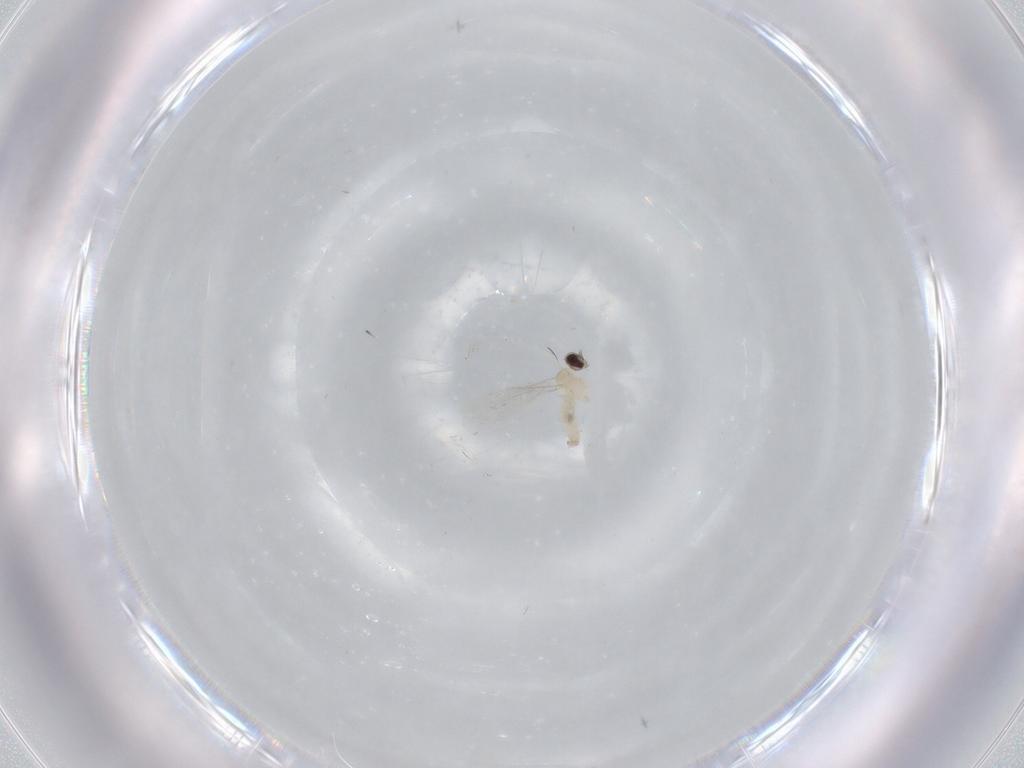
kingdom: Animalia
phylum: Arthropoda
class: Insecta
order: Diptera
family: Cecidomyiidae
